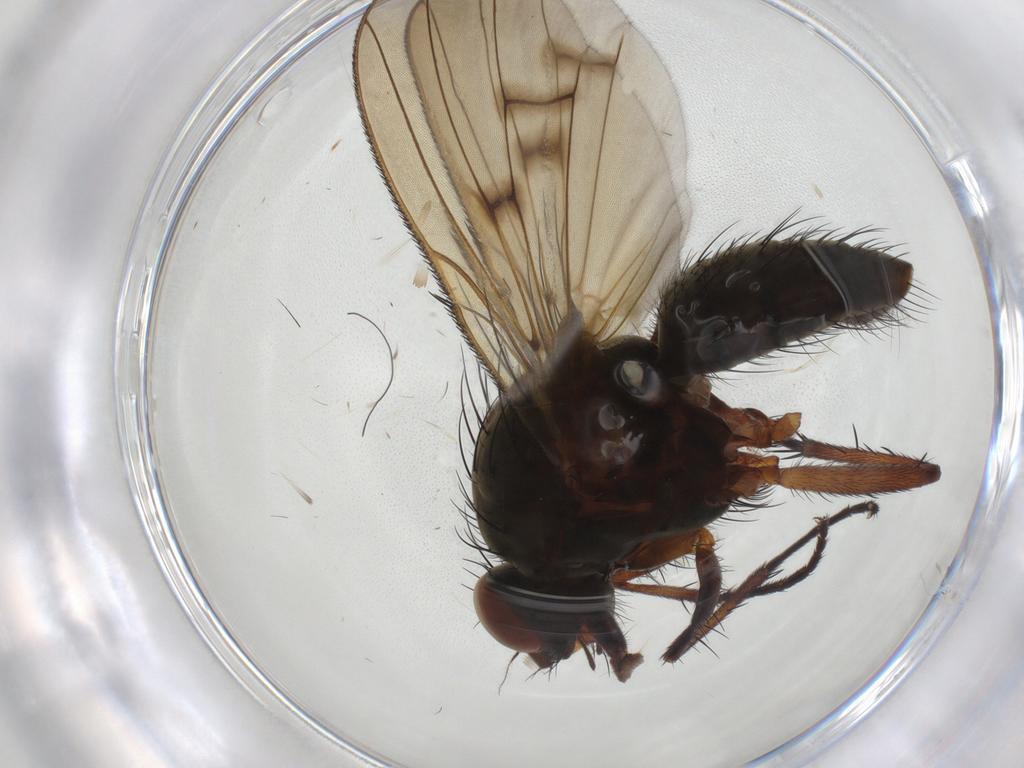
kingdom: Animalia
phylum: Arthropoda
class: Insecta
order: Diptera
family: Anthomyiidae
